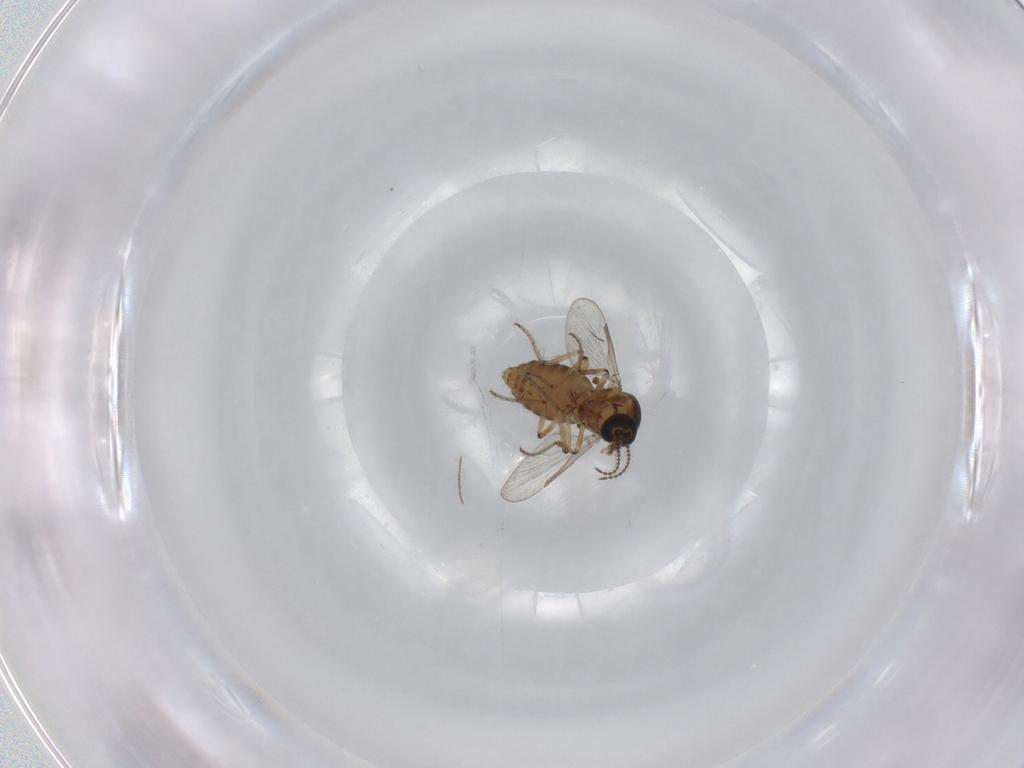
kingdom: Animalia
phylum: Arthropoda
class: Insecta
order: Diptera
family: Ceratopogonidae
